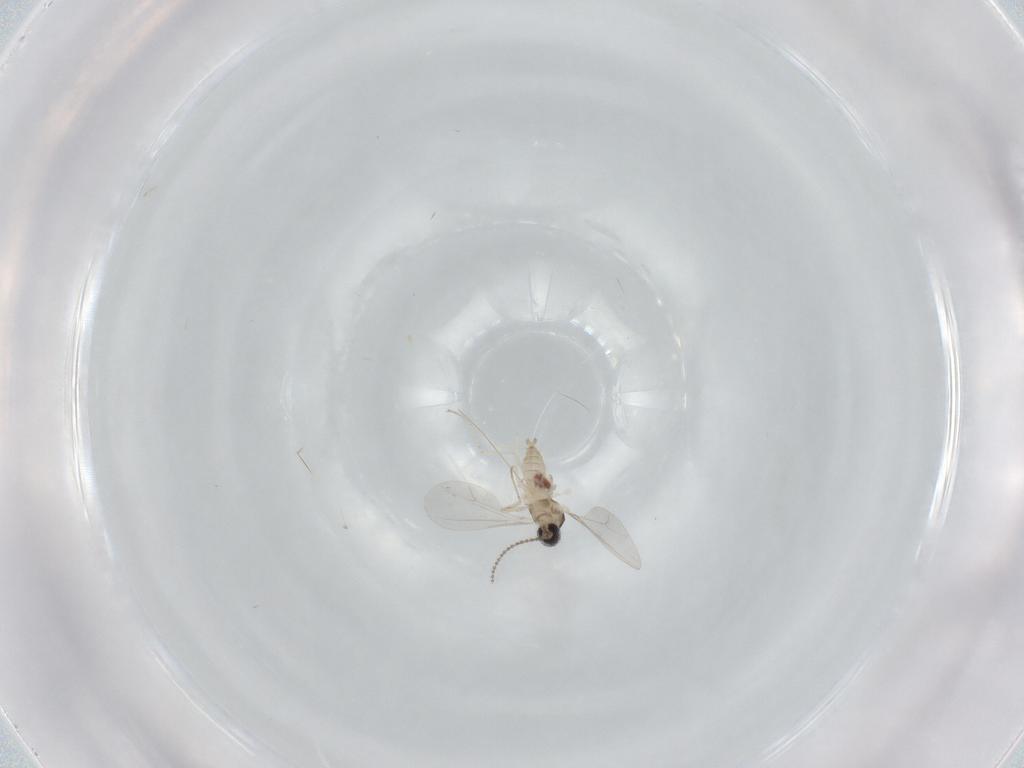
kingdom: Animalia
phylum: Arthropoda
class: Insecta
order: Diptera
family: Cecidomyiidae
